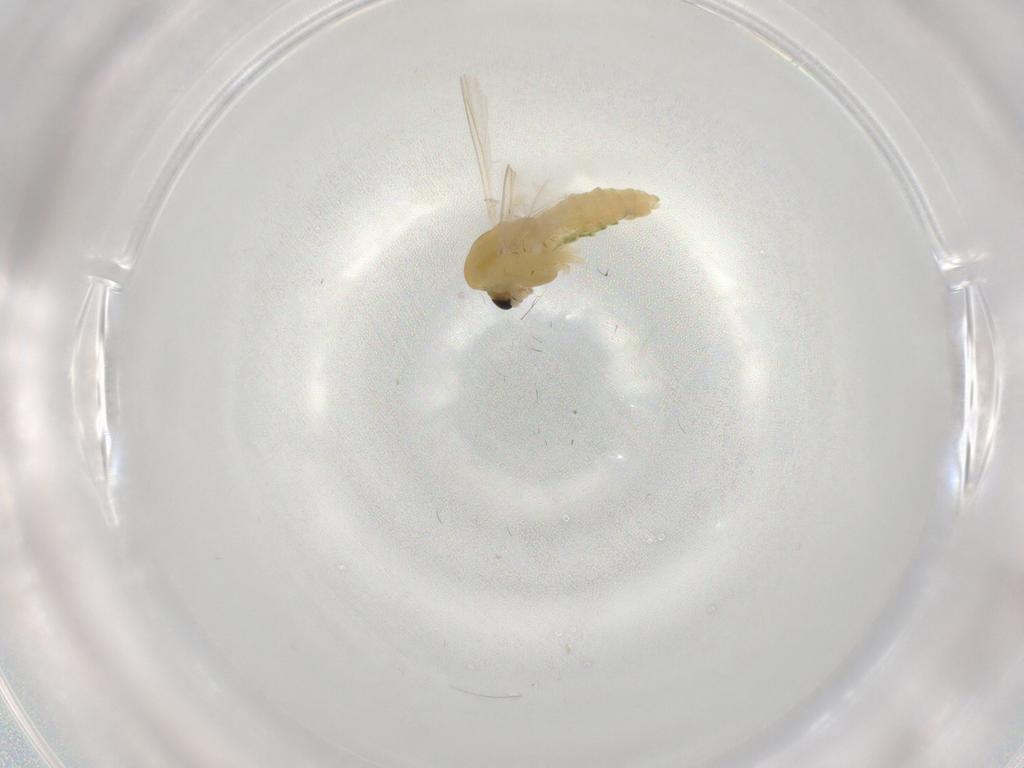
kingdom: Animalia
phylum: Arthropoda
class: Insecta
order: Diptera
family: Chironomidae
